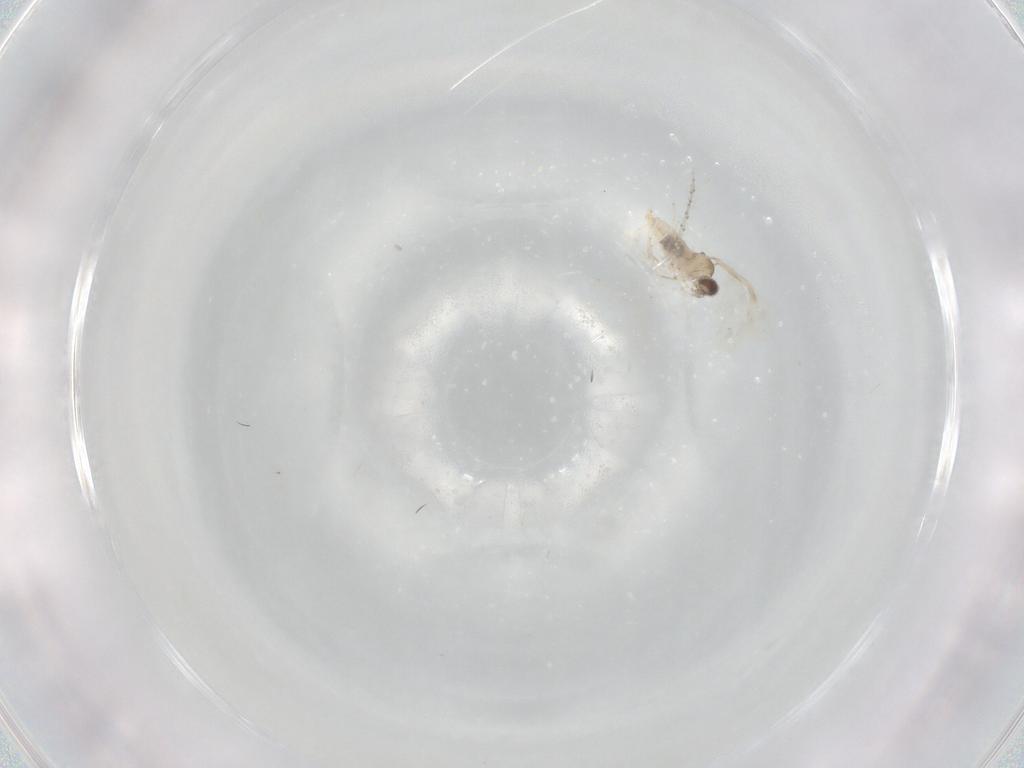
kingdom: Animalia
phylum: Arthropoda
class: Insecta
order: Diptera
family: Cecidomyiidae
